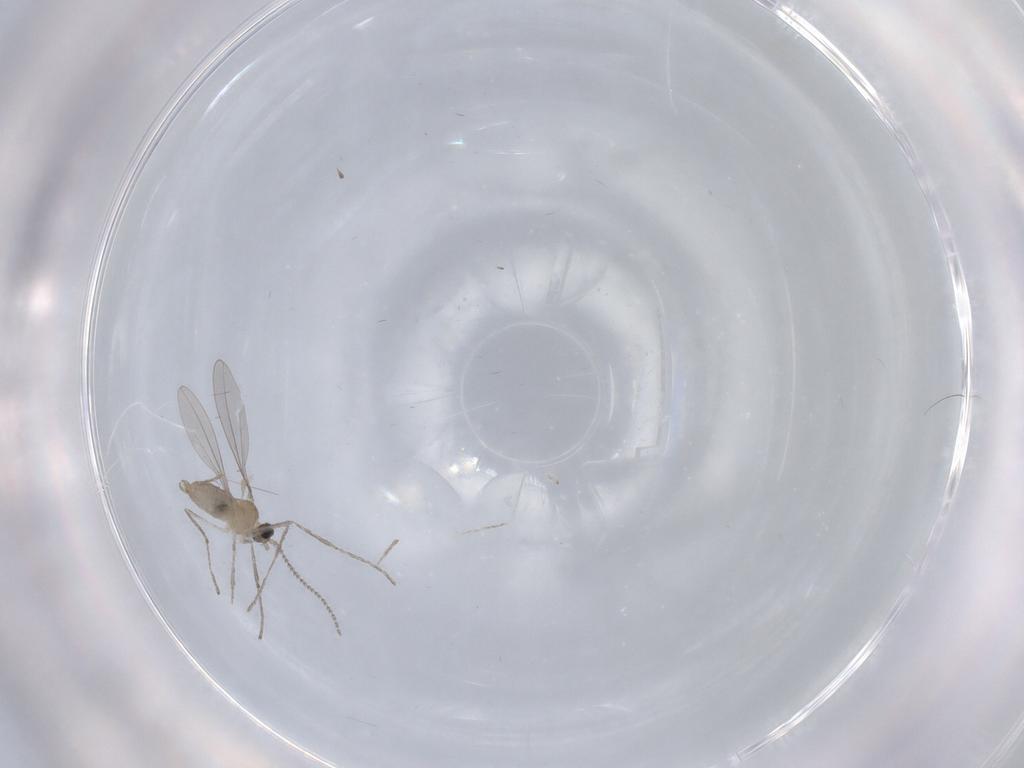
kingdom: Animalia
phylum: Arthropoda
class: Insecta
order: Diptera
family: Cecidomyiidae
